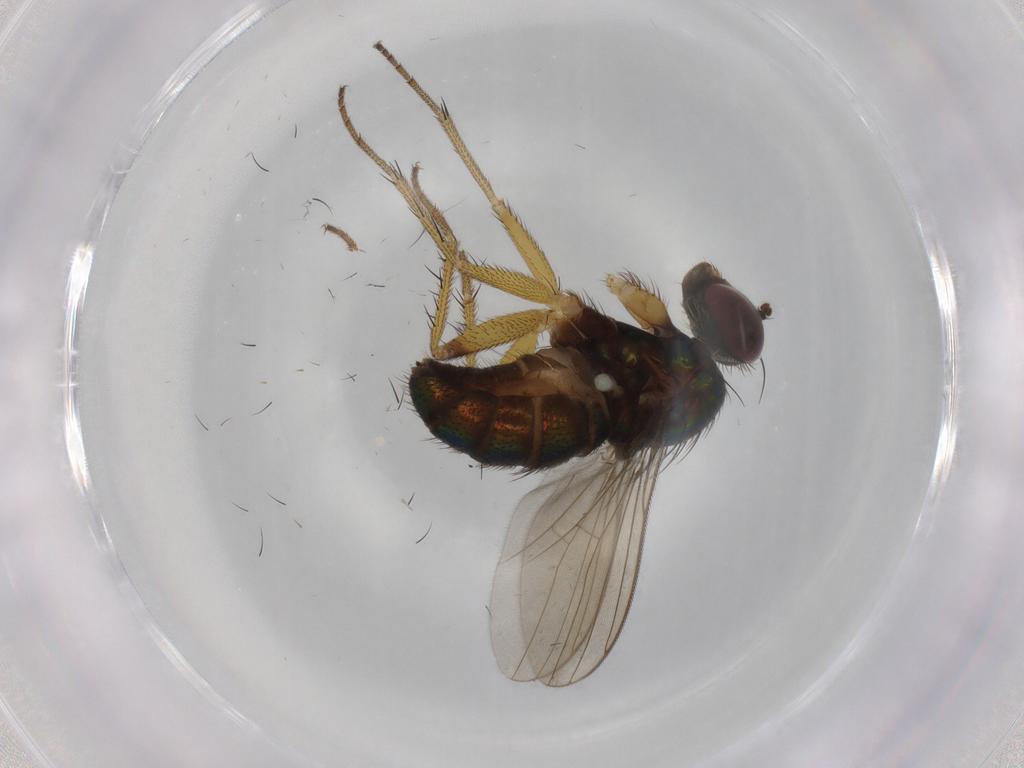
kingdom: Animalia
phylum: Arthropoda
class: Insecta
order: Diptera
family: Dolichopodidae
